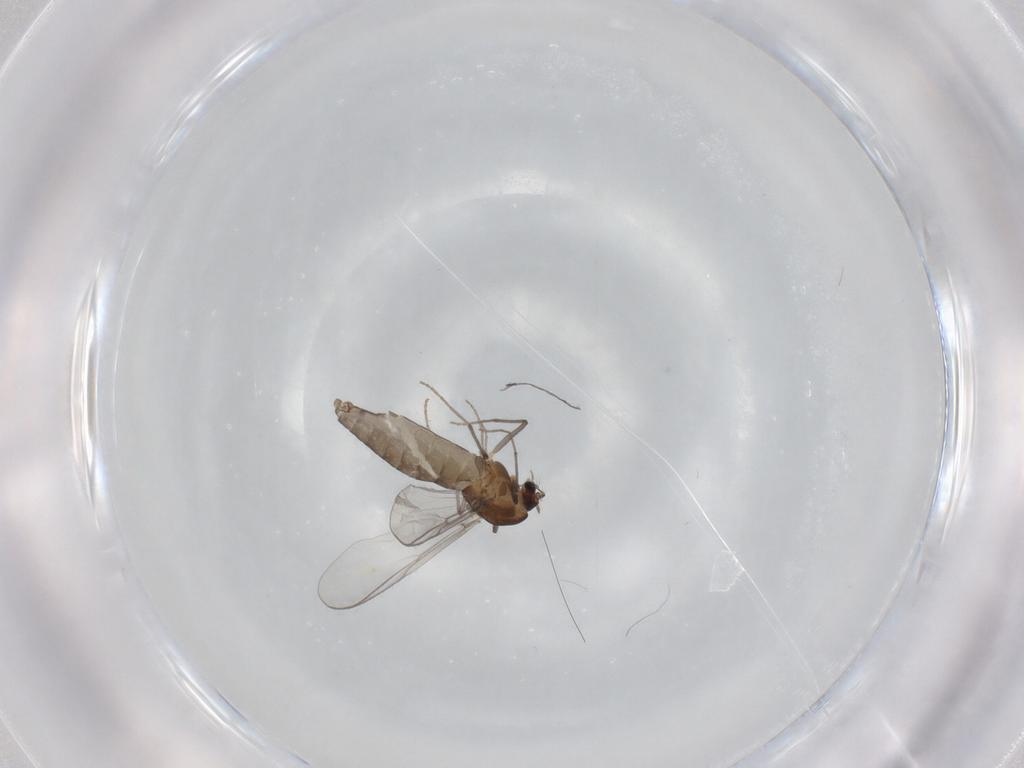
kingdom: Animalia
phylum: Arthropoda
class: Insecta
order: Diptera
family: Chironomidae
